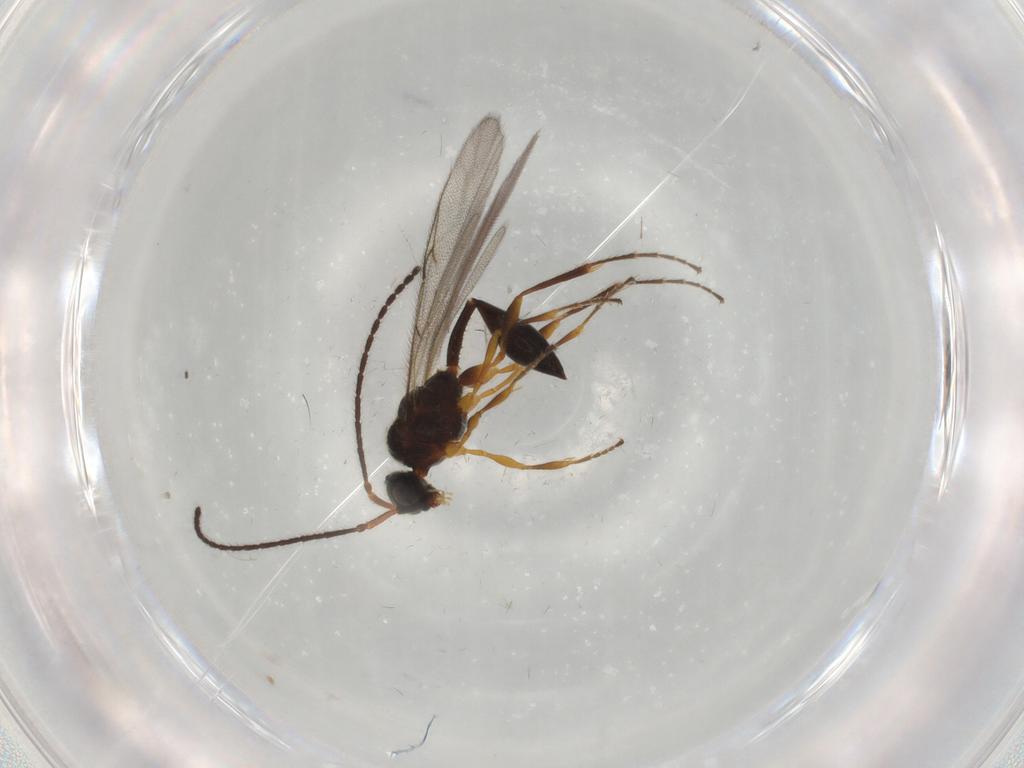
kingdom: Animalia
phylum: Arthropoda
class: Insecta
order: Hymenoptera
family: Diapriidae
